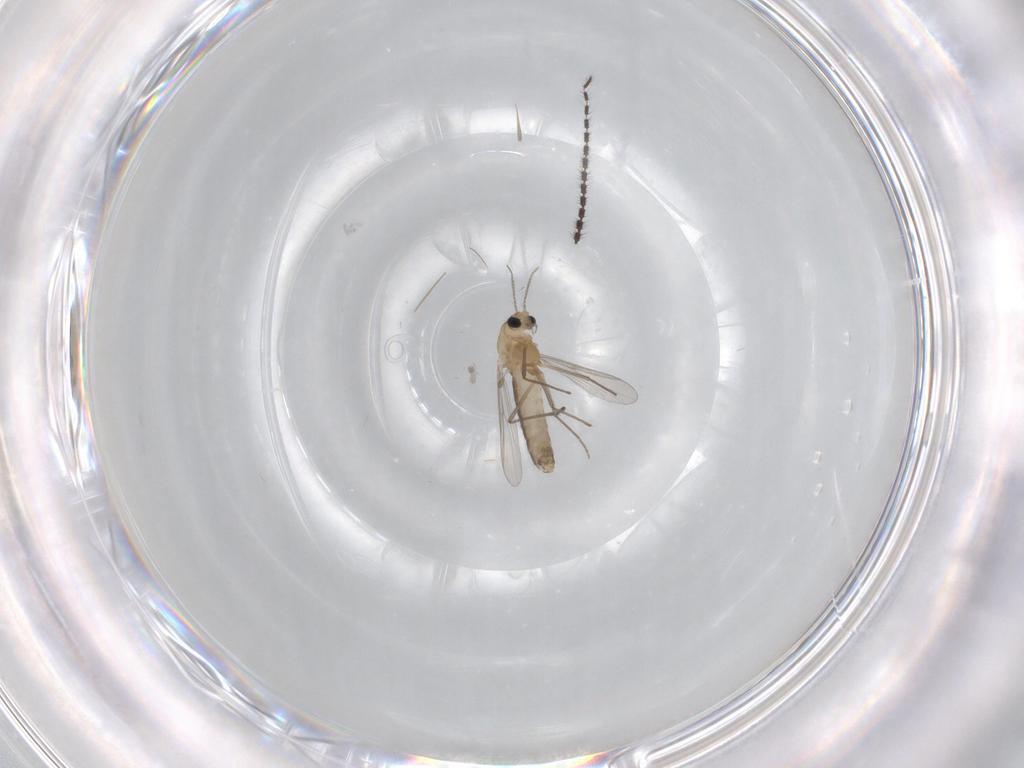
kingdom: Animalia
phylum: Arthropoda
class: Insecta
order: Diptera
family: Chironomidae
